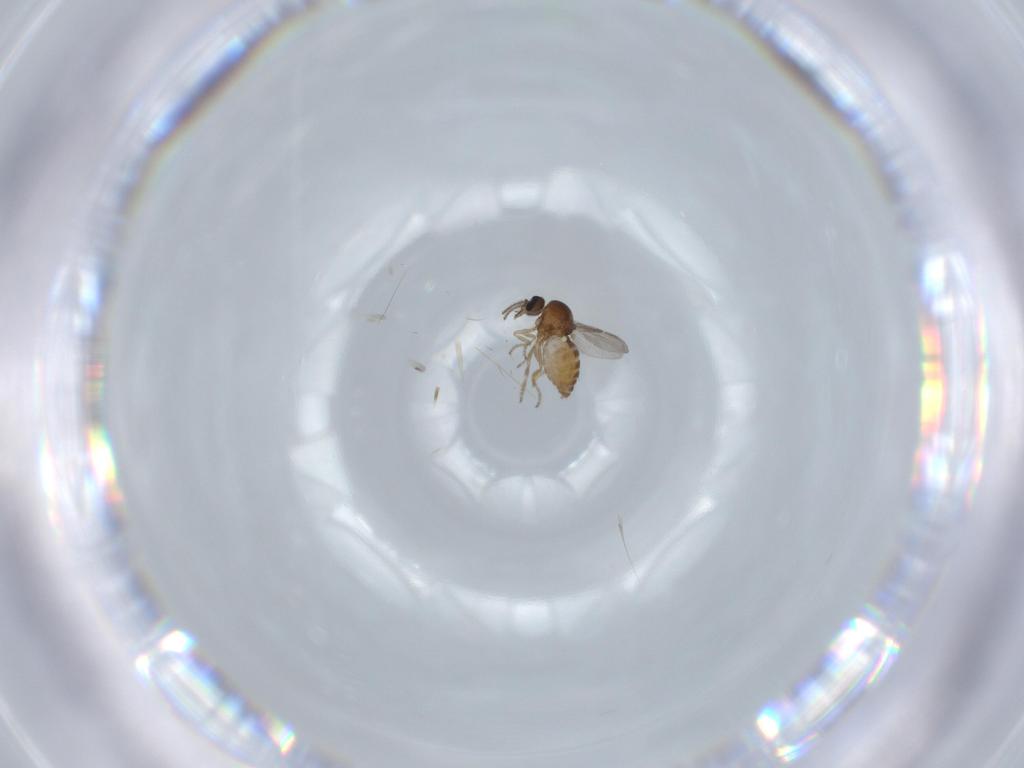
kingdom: Animalia
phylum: Arthropoda
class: Insecta
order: Diptera
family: Ceratopogonidae
